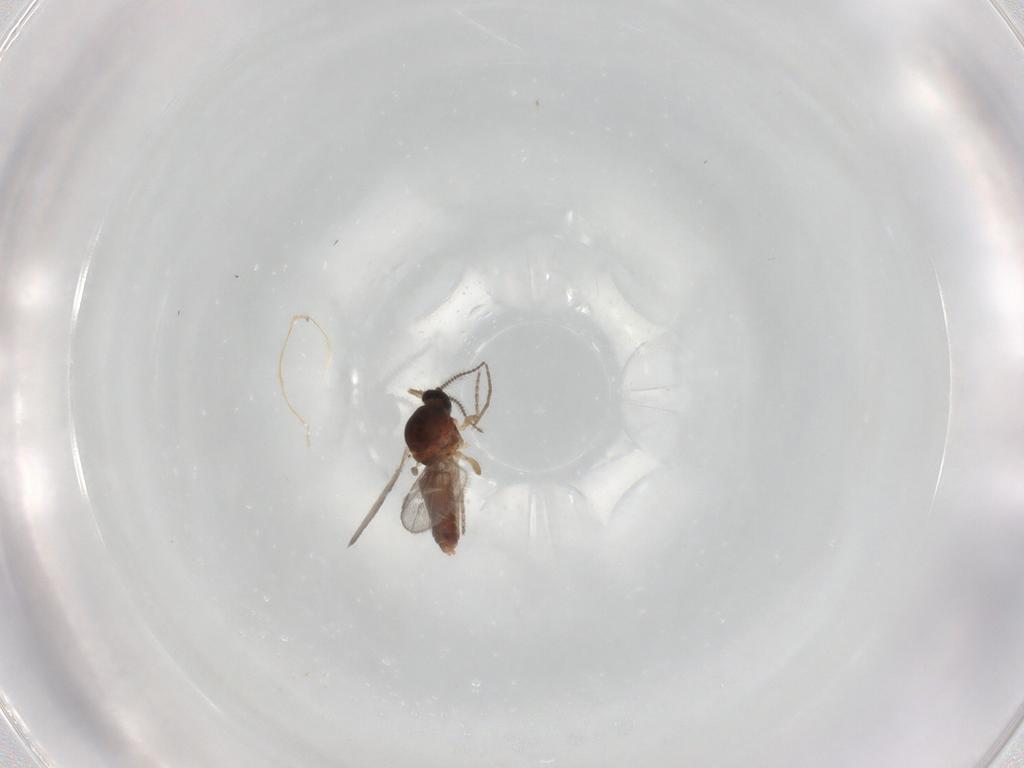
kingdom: Animalia
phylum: Arthropoda
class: Insecta
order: Diptera
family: Ceratopogonidae
